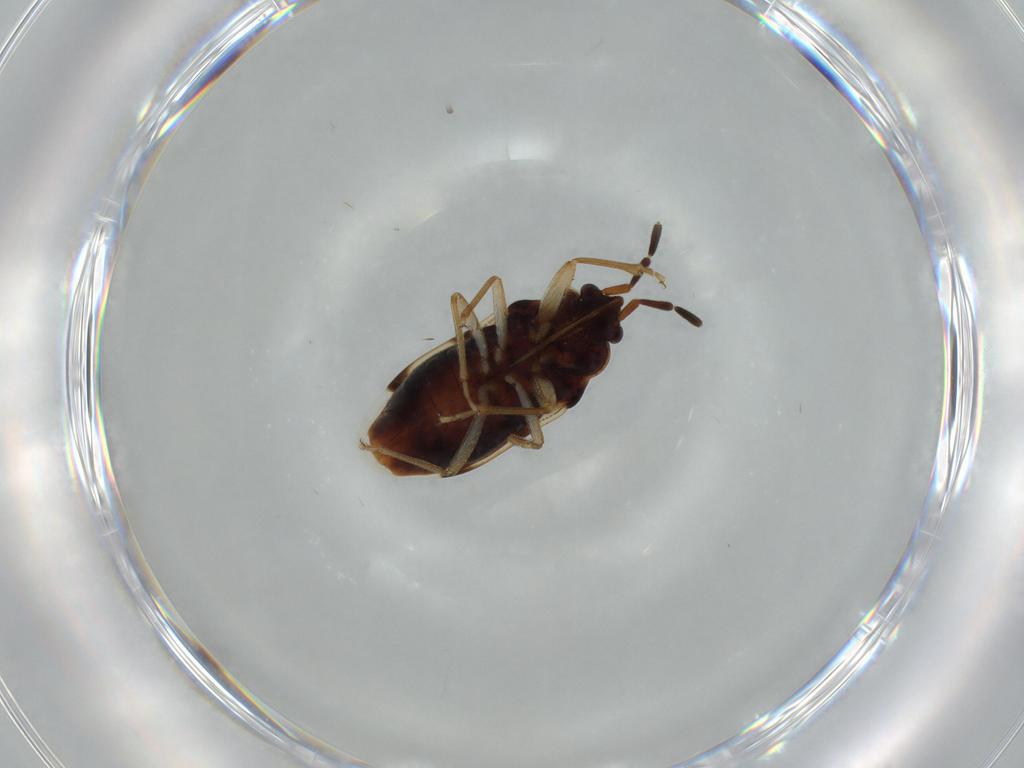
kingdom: Animalia
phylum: Arthropoda
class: Insecta
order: Hemiptera
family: Rhyparochromidae
